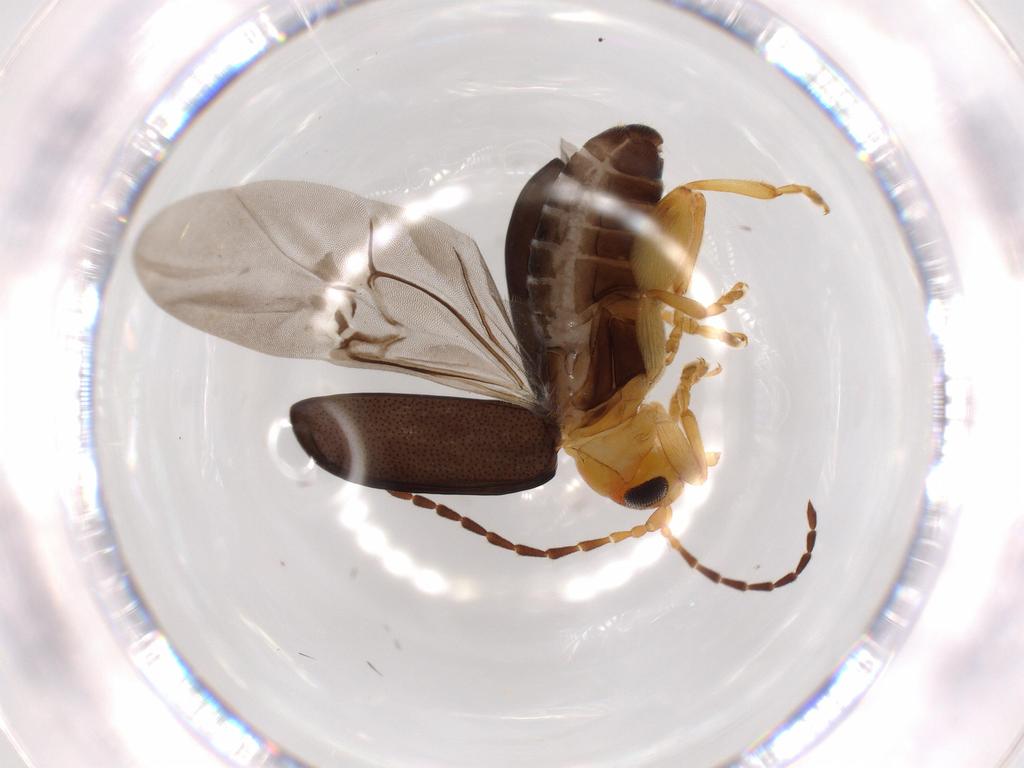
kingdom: Animalia
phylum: Arthropoda
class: Insecta
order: Coleoptera
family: Chrysomelidae
